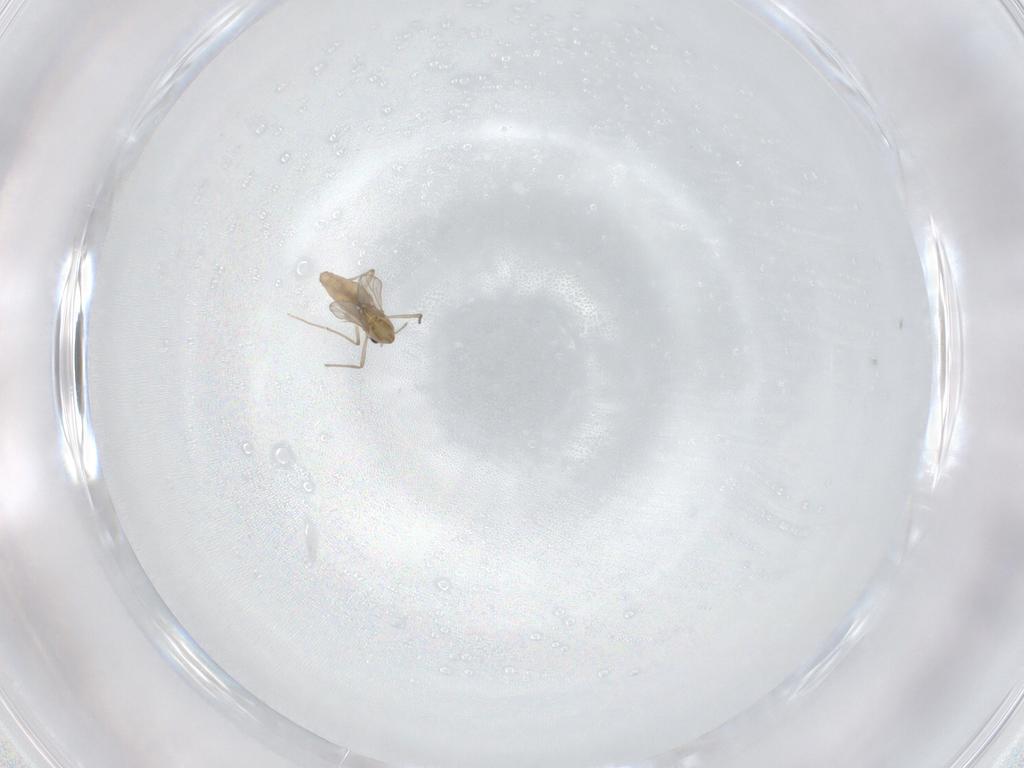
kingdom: Animalia
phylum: Arthropoda
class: Insecta
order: Diptera
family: Chironomidae
